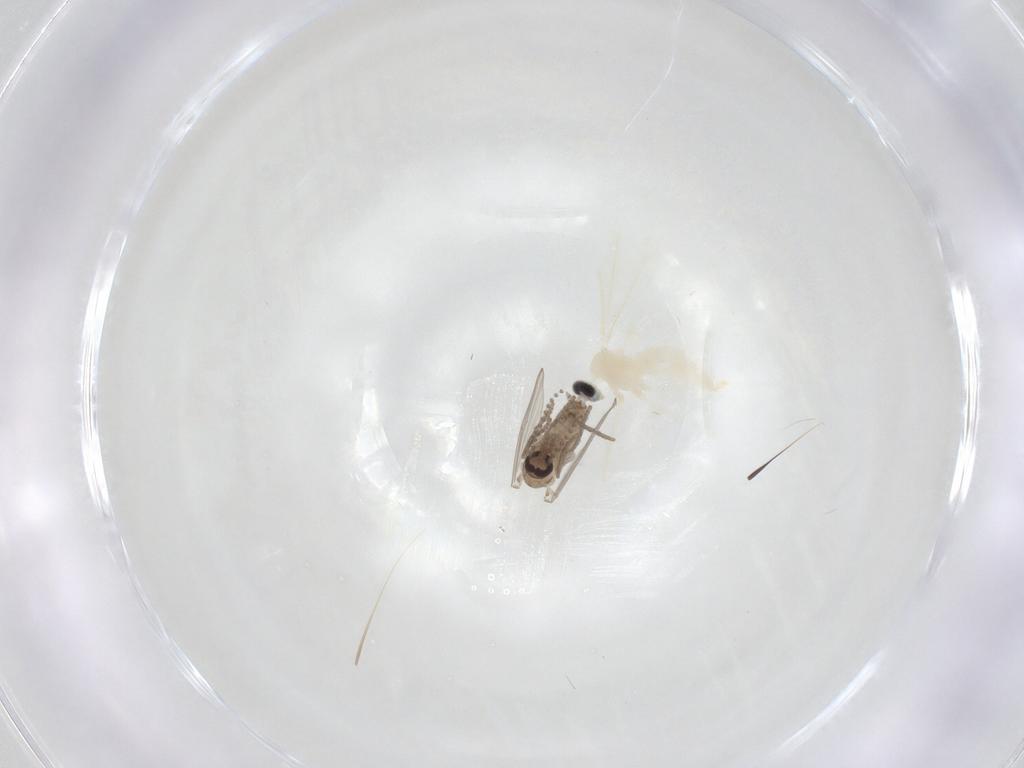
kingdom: Animalia
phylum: Arthropoda
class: Insecta
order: Diptera
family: Psychodidae
